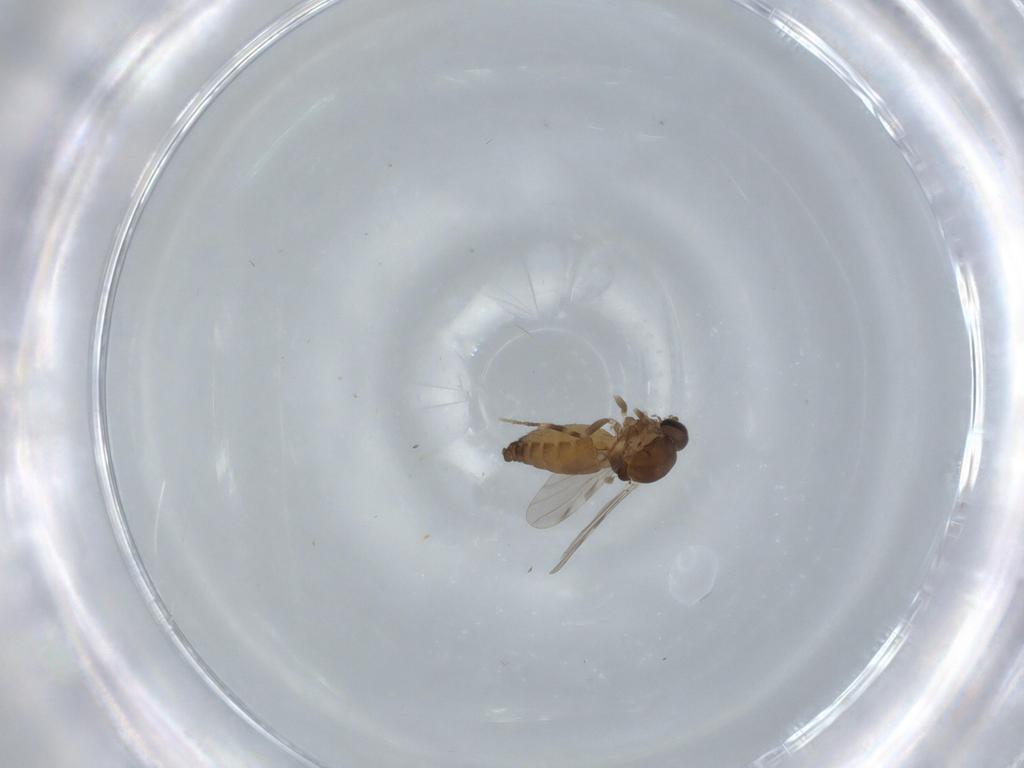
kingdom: Animalia
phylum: Arthropoda
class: Insecta
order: Diptera
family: Ceratopogonidae
